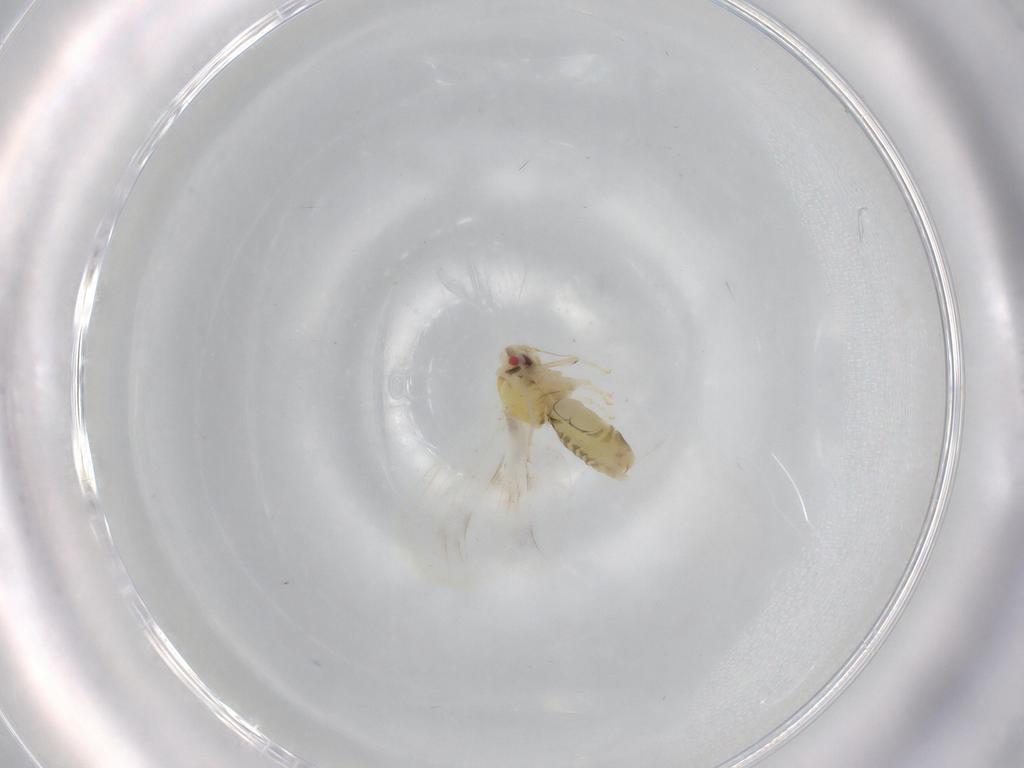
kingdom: Animalia
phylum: Arthropoda
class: Insecta
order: Hemiptera
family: Aleyrodidae
